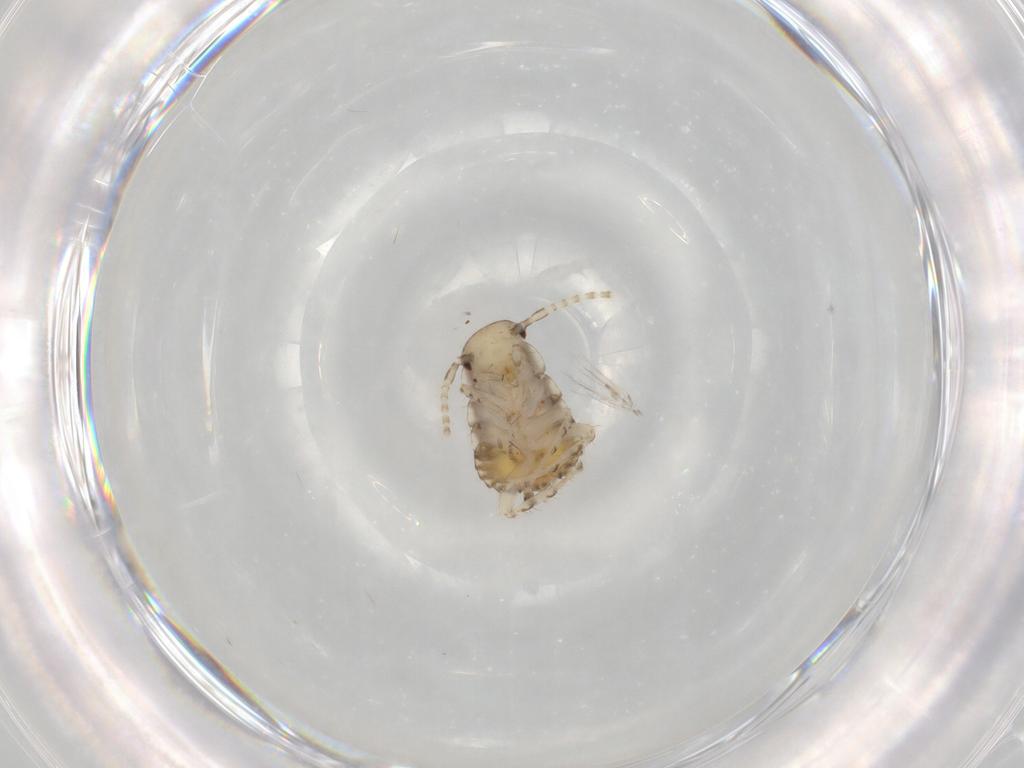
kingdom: Animalia
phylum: Arthropoda
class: Insecta
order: Blattodea
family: Ectobiidae
